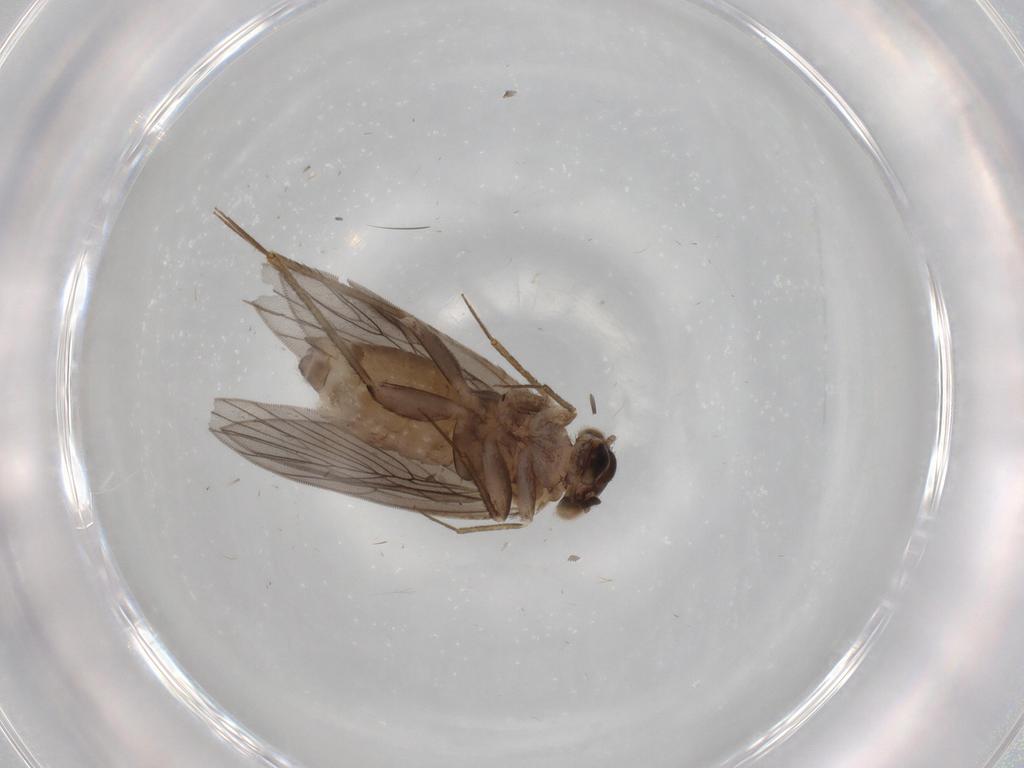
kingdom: Animalia
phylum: Arthropoda
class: Insecta
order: Psocodea
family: Lepidopsocidae
